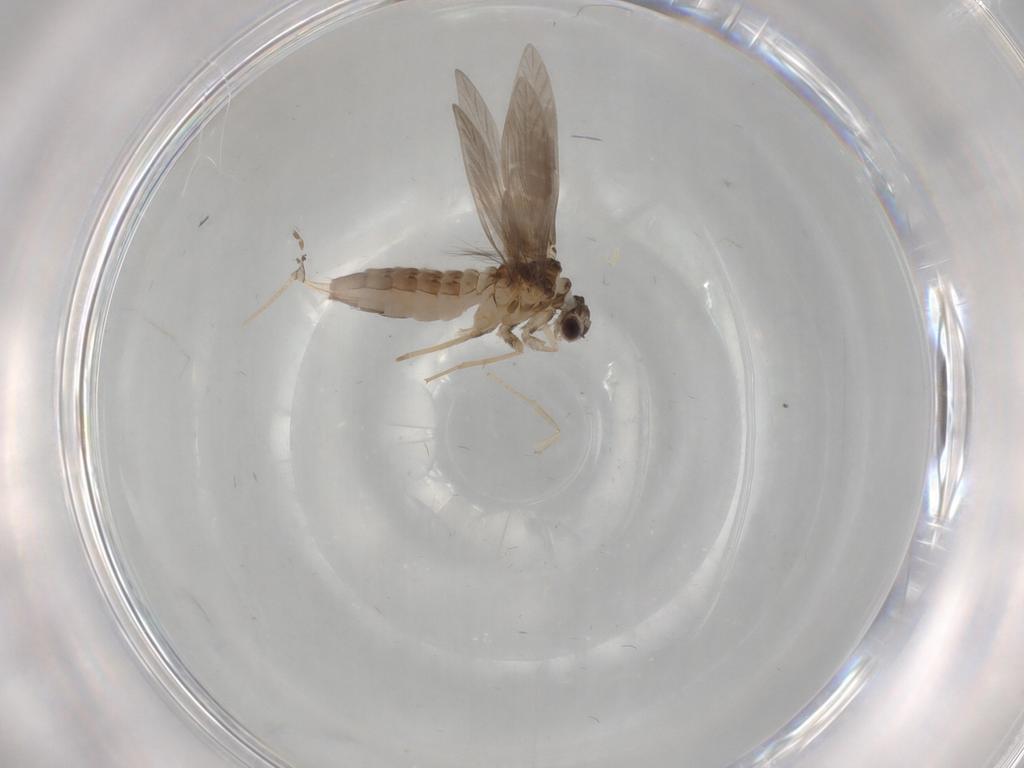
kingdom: Animalia
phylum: Arthropoda
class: Insecta
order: Trichoptera
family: Hydroptilidae
